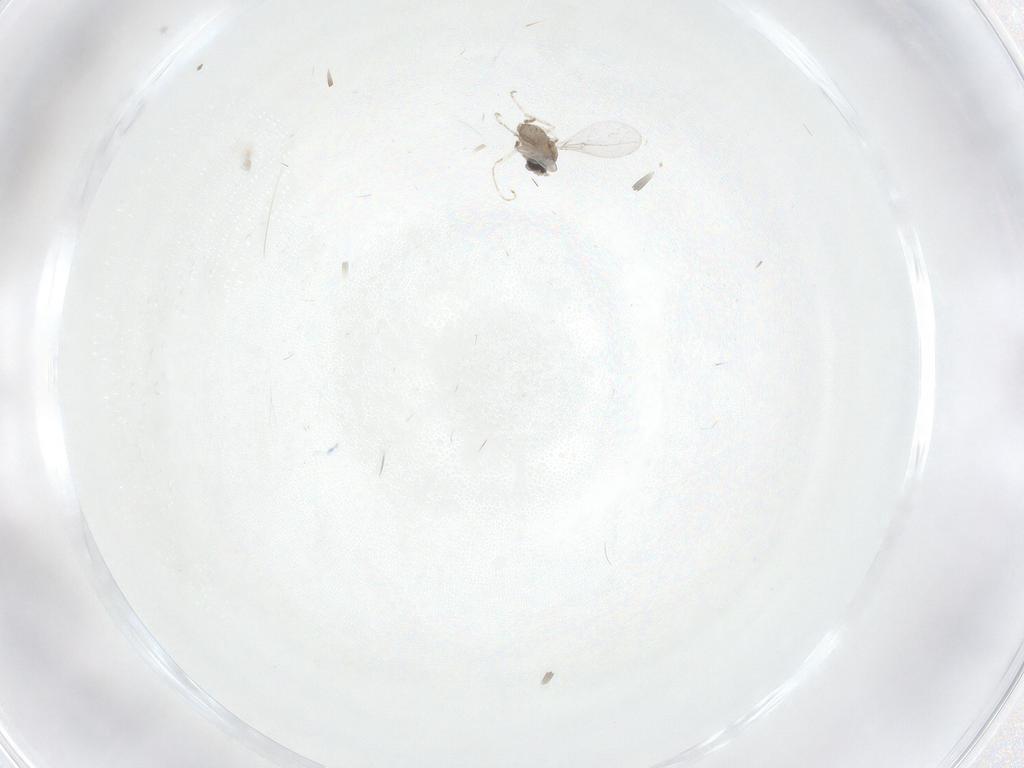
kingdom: Animalia
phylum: Arthropoda
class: Insecta
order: Diptera
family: Cecidomyiidae
